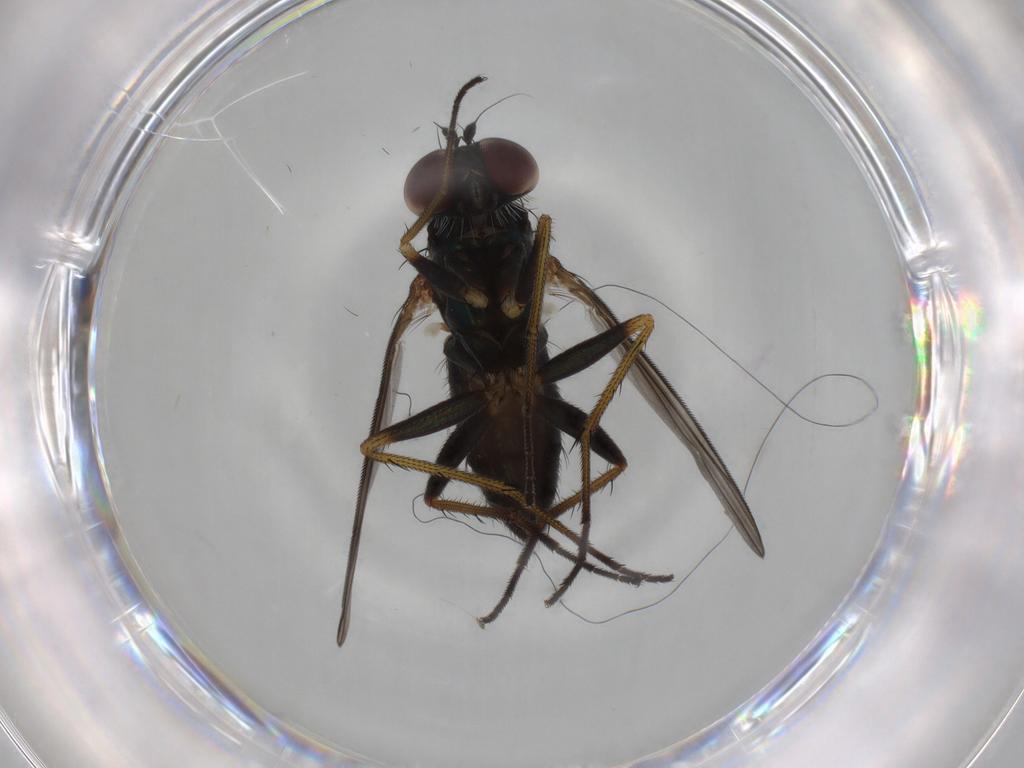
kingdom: Animalia
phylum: Arthropoda
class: Insecta
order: Diptera
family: Dolichopodidae
